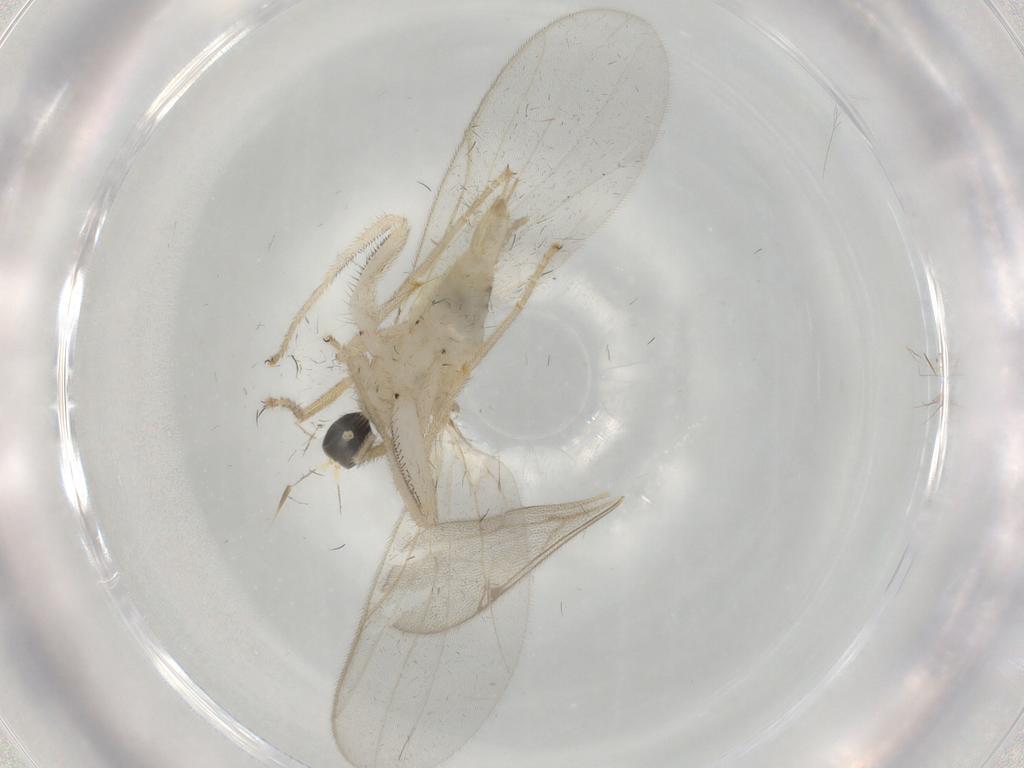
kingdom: Animalia
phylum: Arthropoda
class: Insecta
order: Diptera
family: Hybotidae
